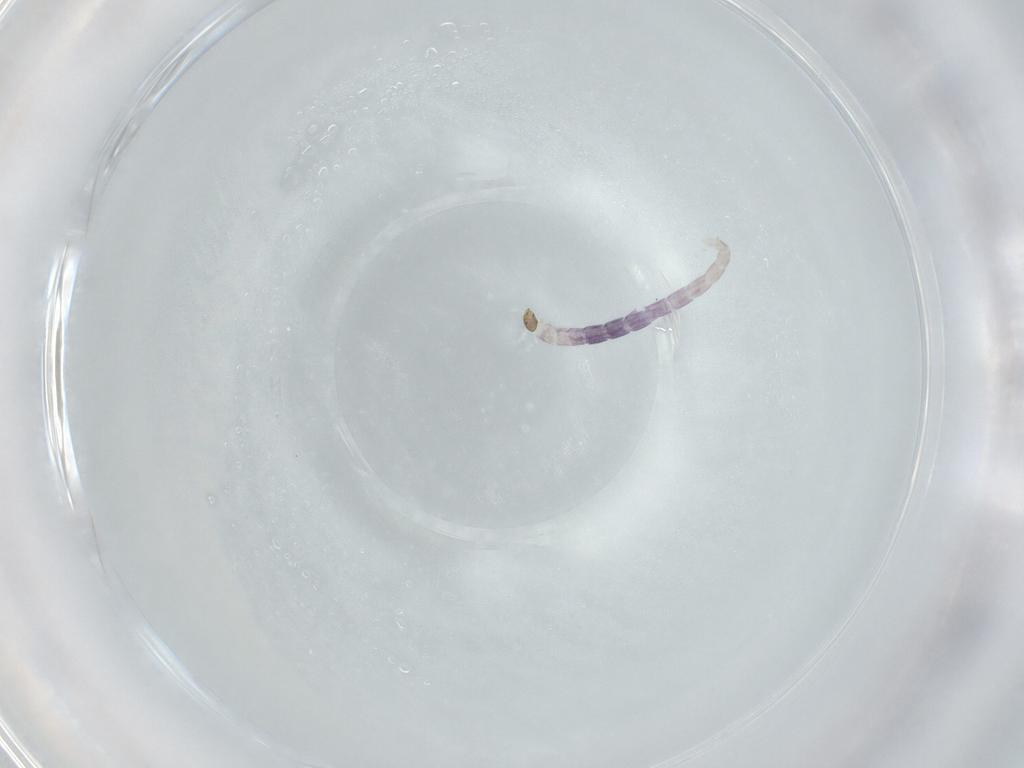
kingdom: Animalia
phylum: Arthropoda
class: Insecta
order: Diptera
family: Chironomidae
